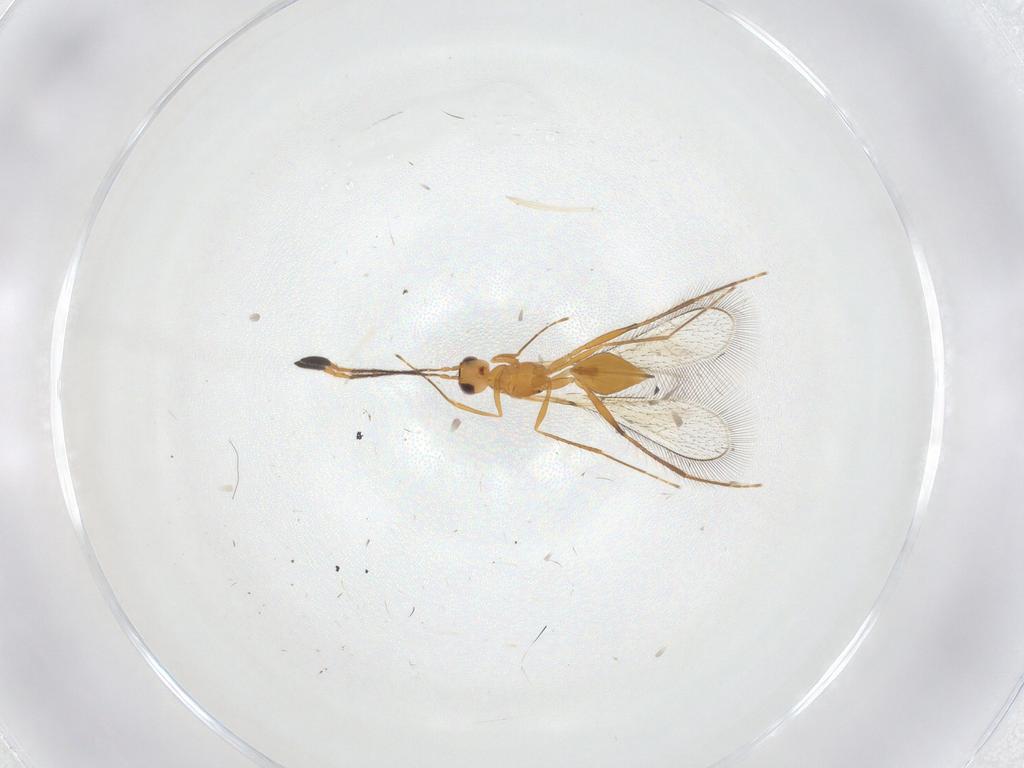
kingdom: Animalia
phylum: Arthropoda
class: Insecta
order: Hymenoptera
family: Mymaridae
